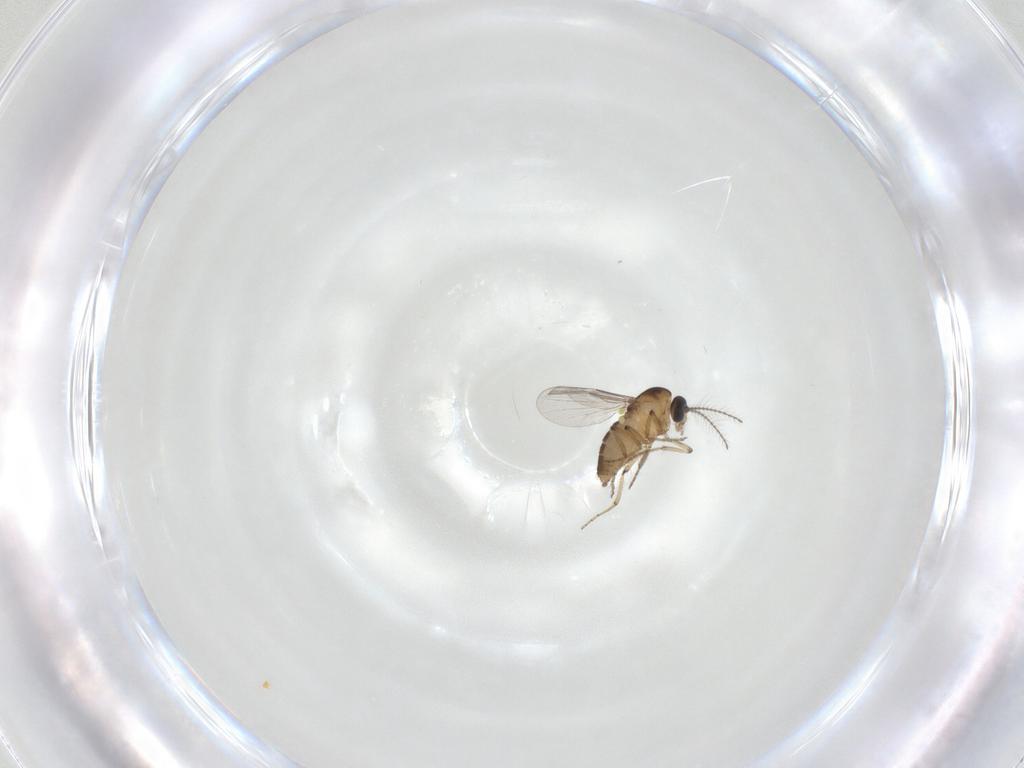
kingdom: Animalia
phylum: Arthropoda
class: Insecta
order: Diptera
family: Ceratopogonidae
